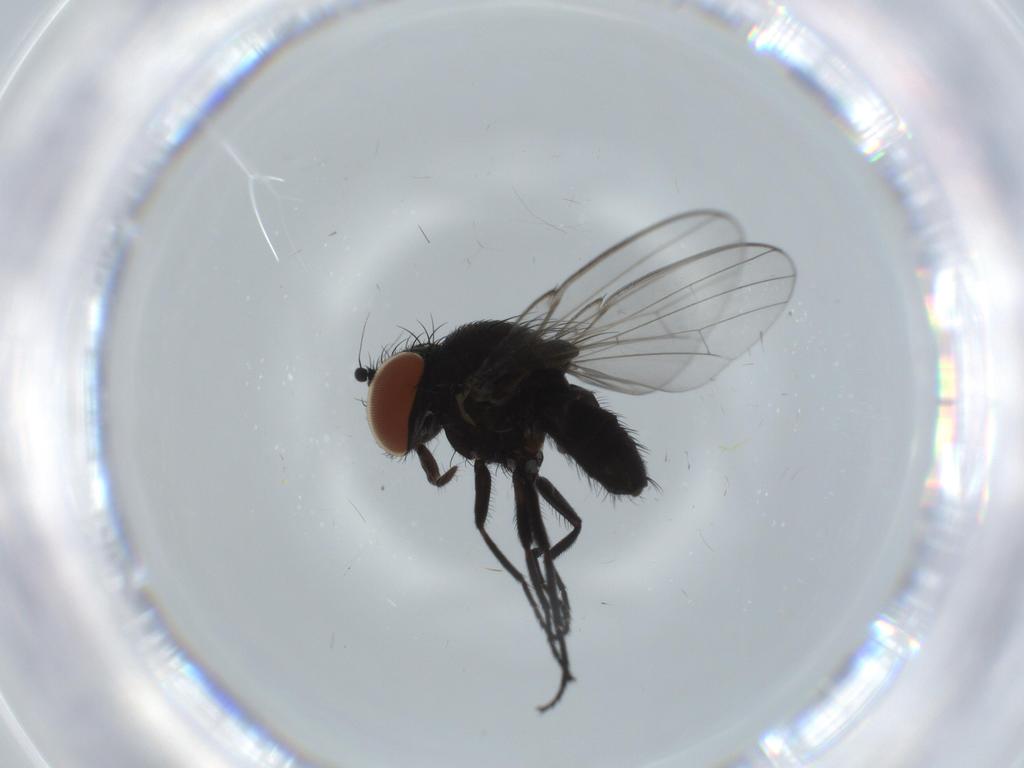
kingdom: Animalia
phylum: Arthropoda
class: Insecta
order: Diptera
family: Milichiidae
